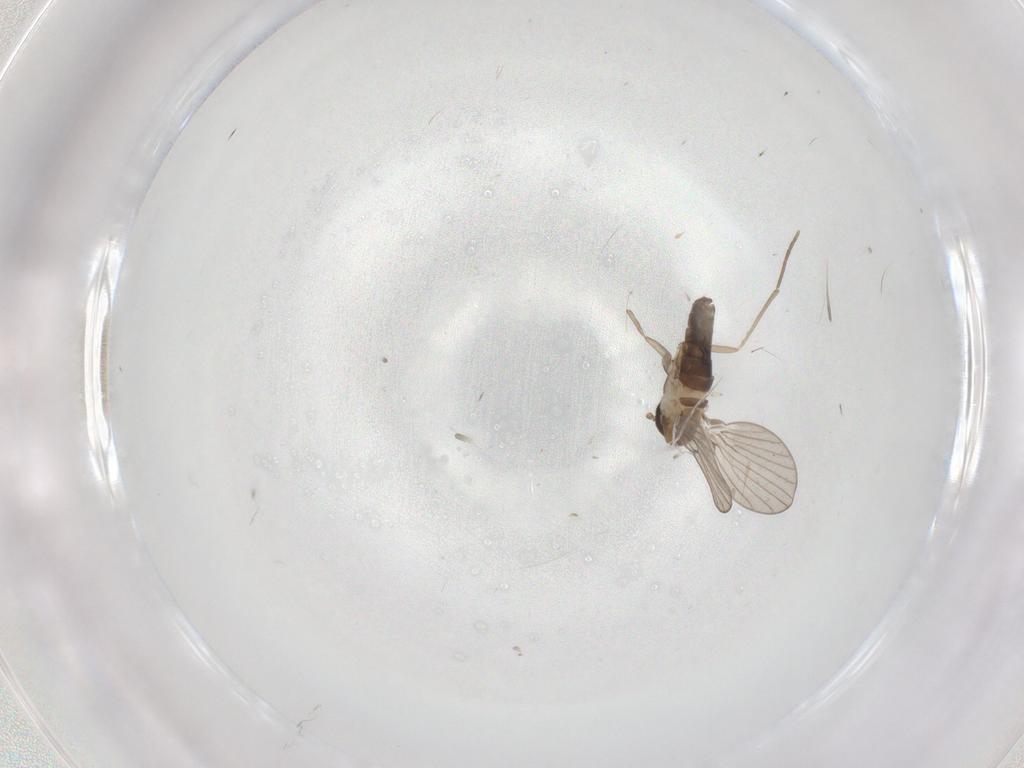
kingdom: Animalia
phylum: Arthropoda
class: Insecta
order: Diptera
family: Psychodidae
